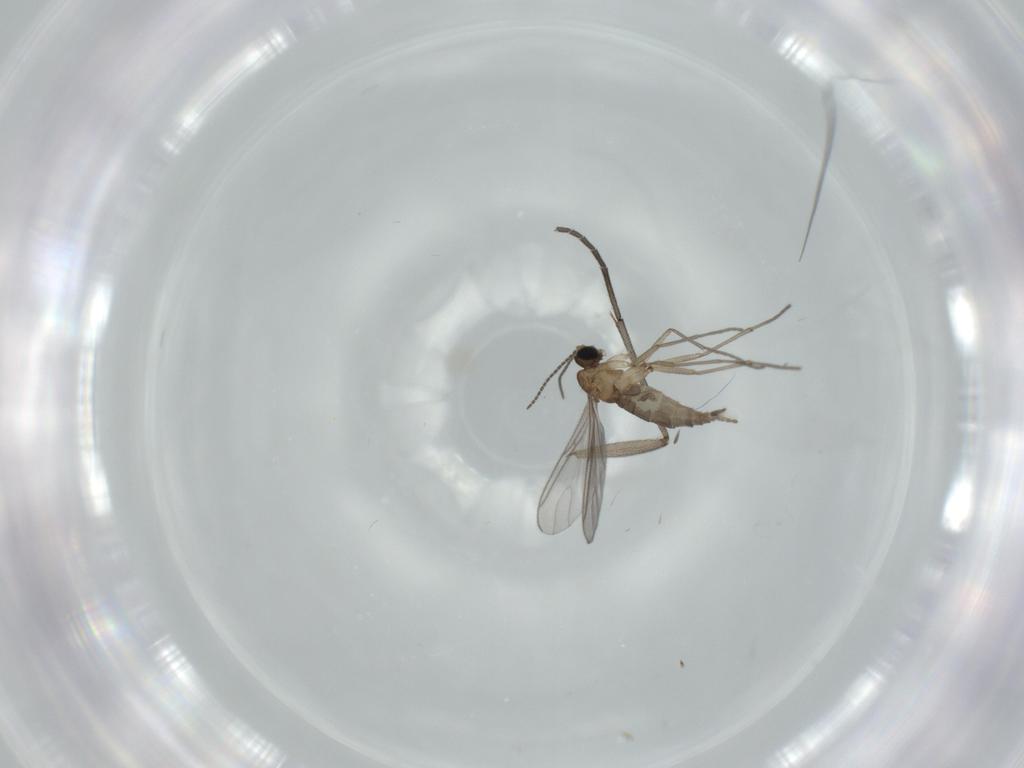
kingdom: Animalia
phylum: Arthropoda
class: Insecta
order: Diptera
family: Sciaridae
